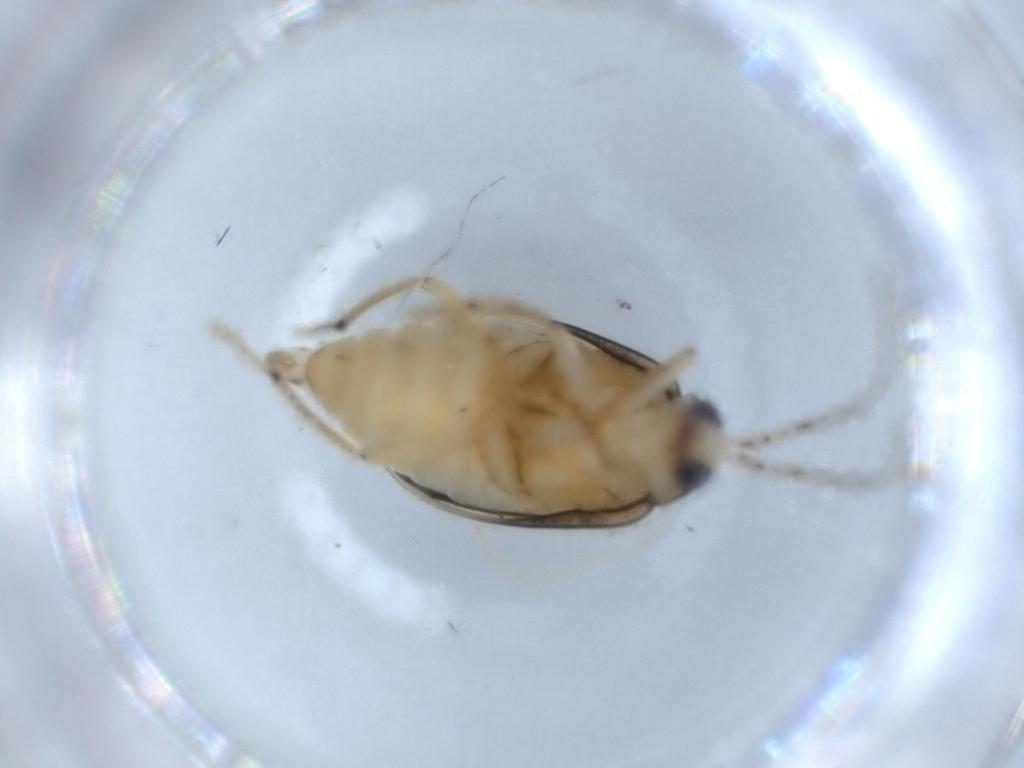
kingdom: Animalia
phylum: Arthropoda
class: Insecta
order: Coleoptera
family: Chrysomelidae
